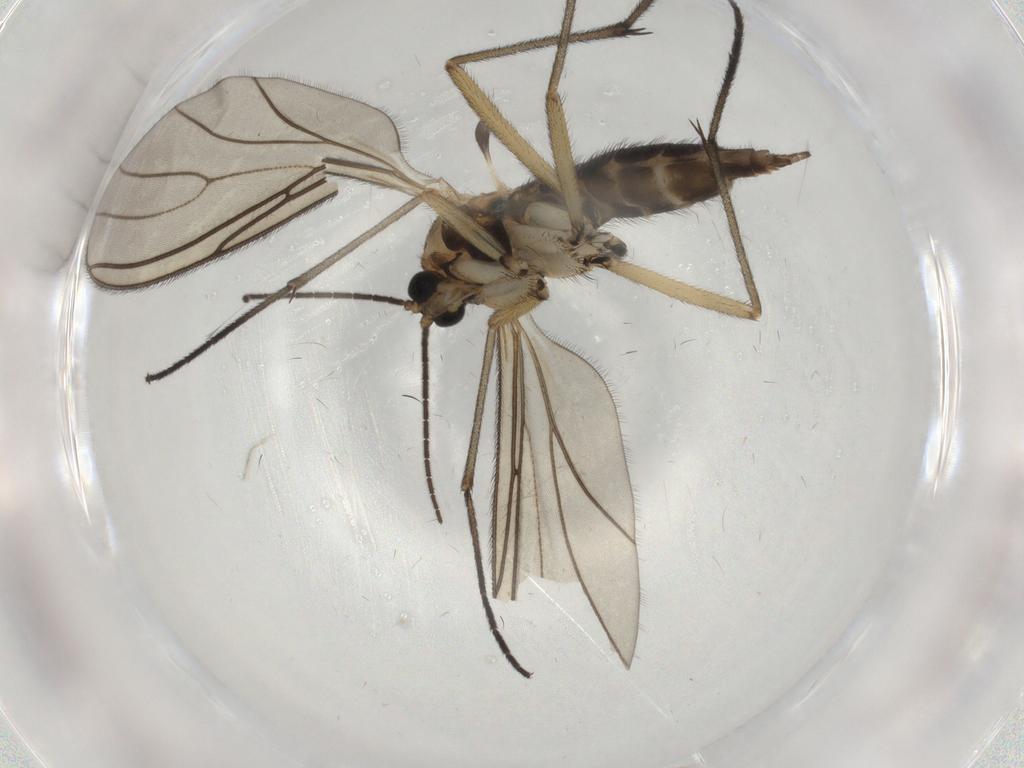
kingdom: Animalia
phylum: Arthropoda
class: Insecta
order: Diptera
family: Sciaridae
